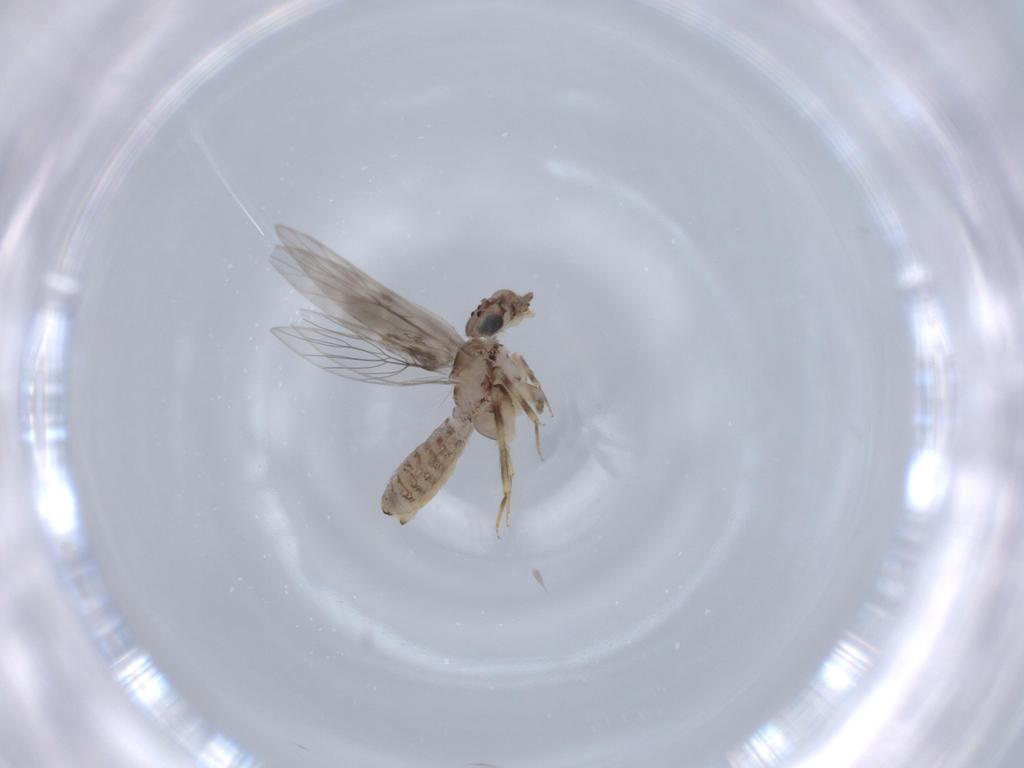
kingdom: Animalia
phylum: Arthropoda
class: Insecta
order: Psocodea
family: Lepidopsocidae
